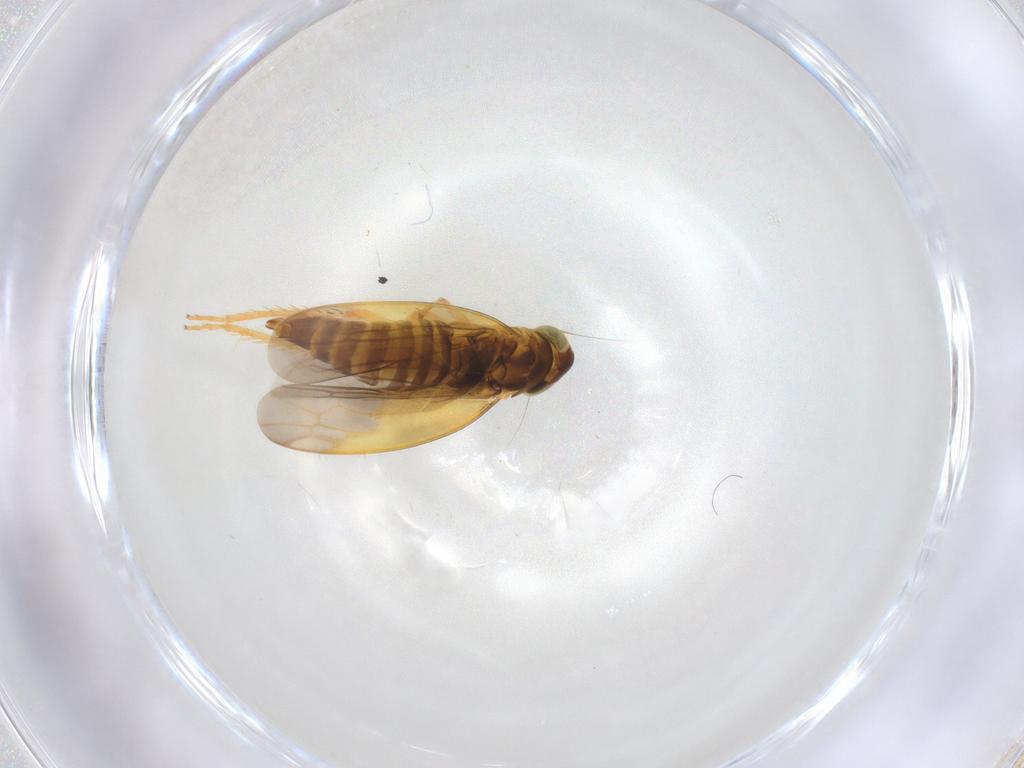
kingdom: Animalia
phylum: Arthropoda
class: Insecta
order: Hemiptera
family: Cicadellidae
